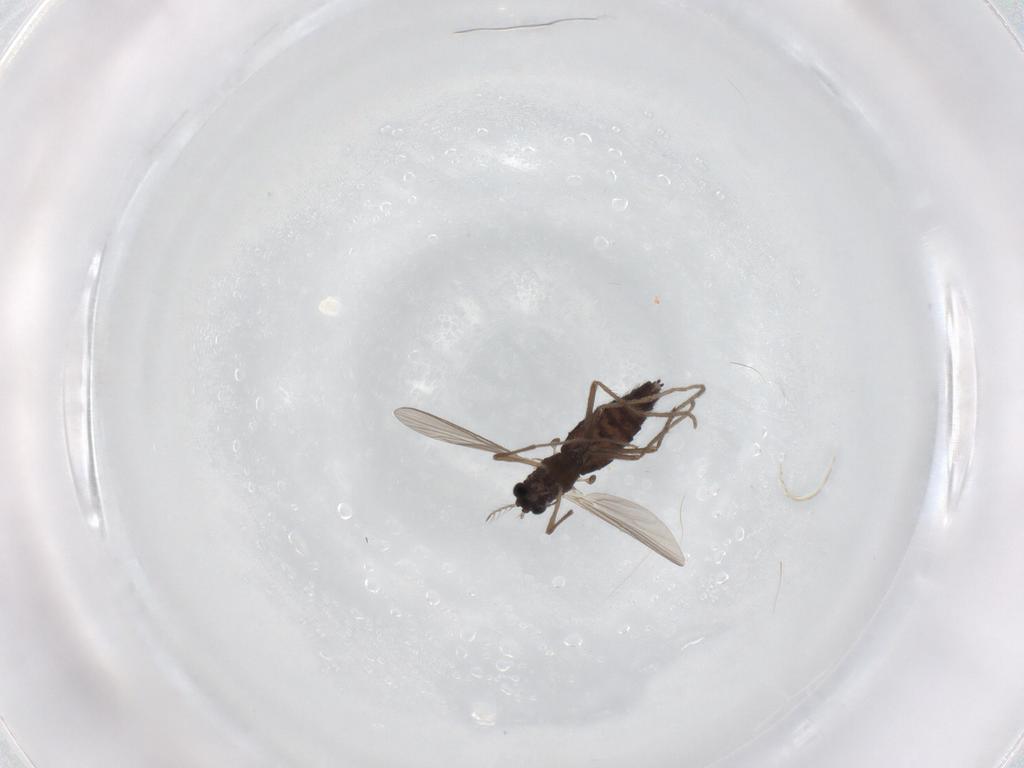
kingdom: Animalia
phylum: Arthropoda
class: Insecta
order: Diptera
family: Chironomidae
